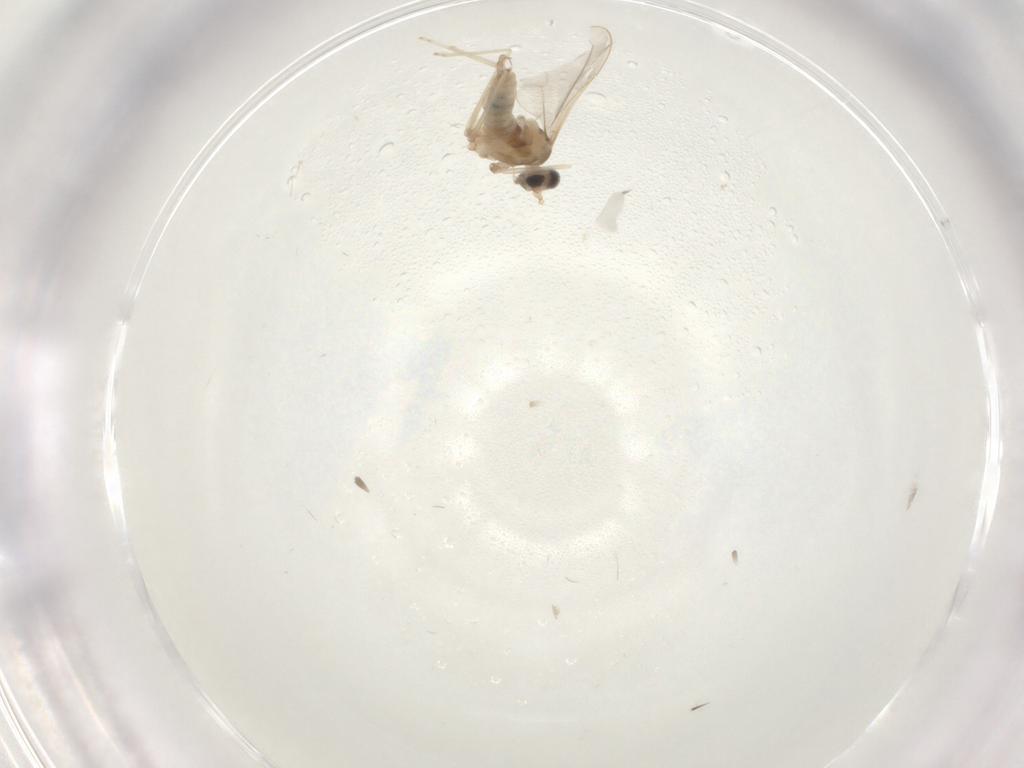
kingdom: Animalia
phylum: Arthropoda
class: Insecta
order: Diptera
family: Cecidomyiidae
